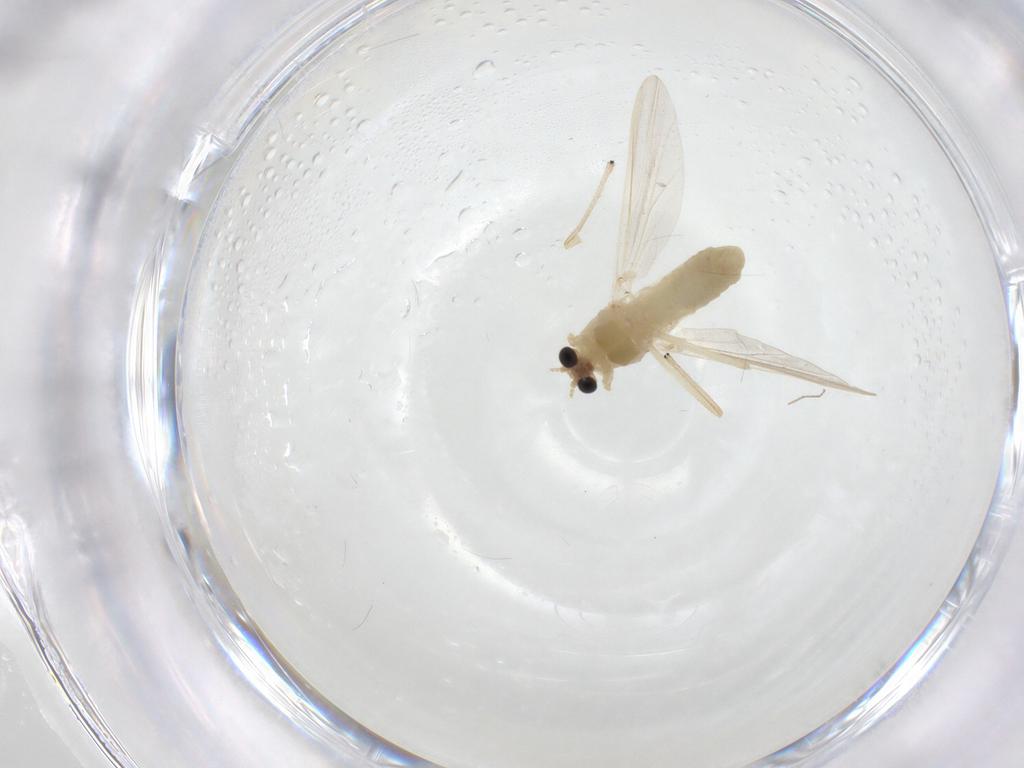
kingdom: Animalia
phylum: Arthropoda
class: Insecta
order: Diptera
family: Chironomidae
